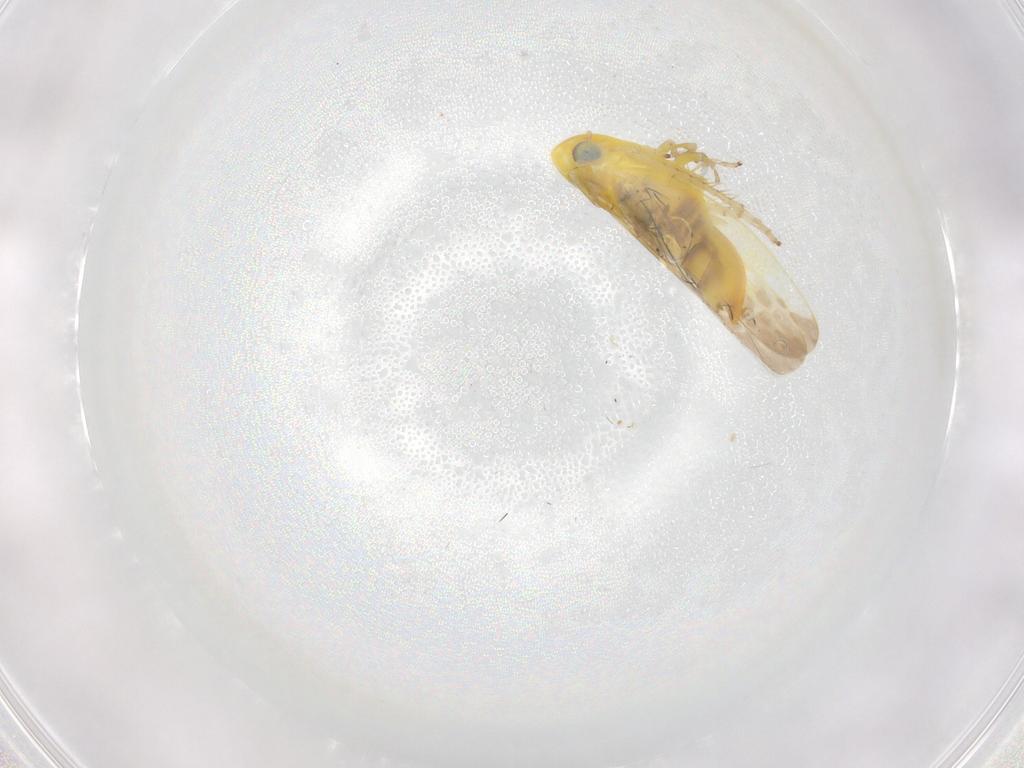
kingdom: Animalia
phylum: Arthropoda
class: Insecta
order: Hemiptera
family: Cicadellidae
